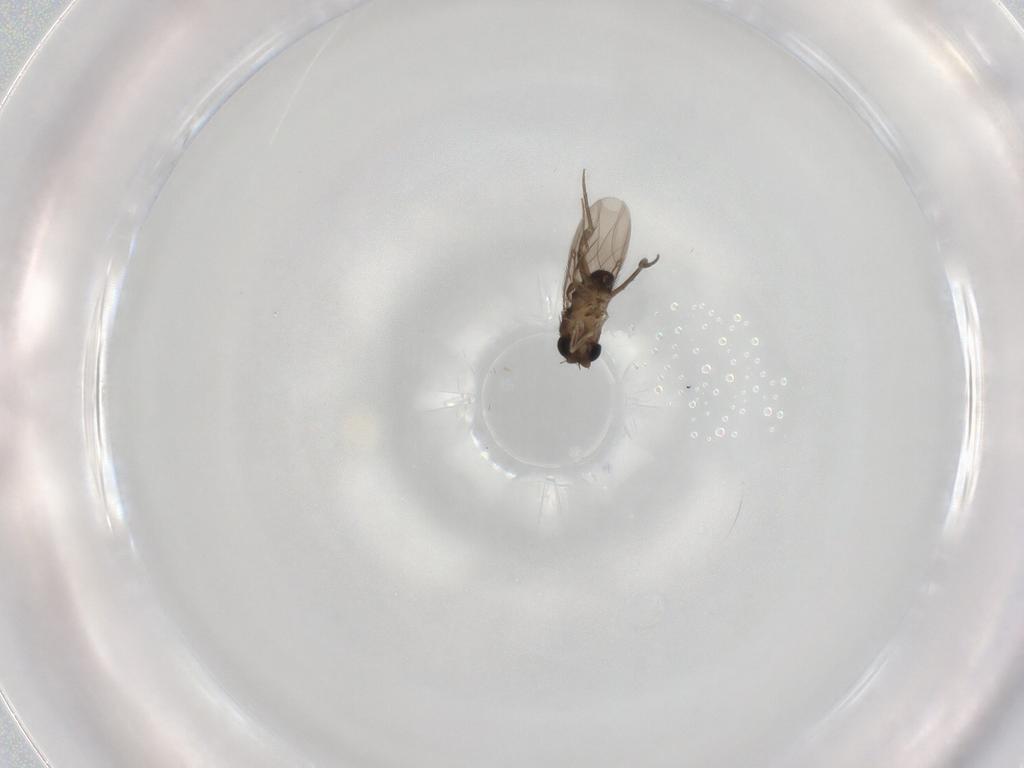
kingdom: Animalia
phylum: Arthropoda
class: Insecta
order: Diptera
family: Phoridae
